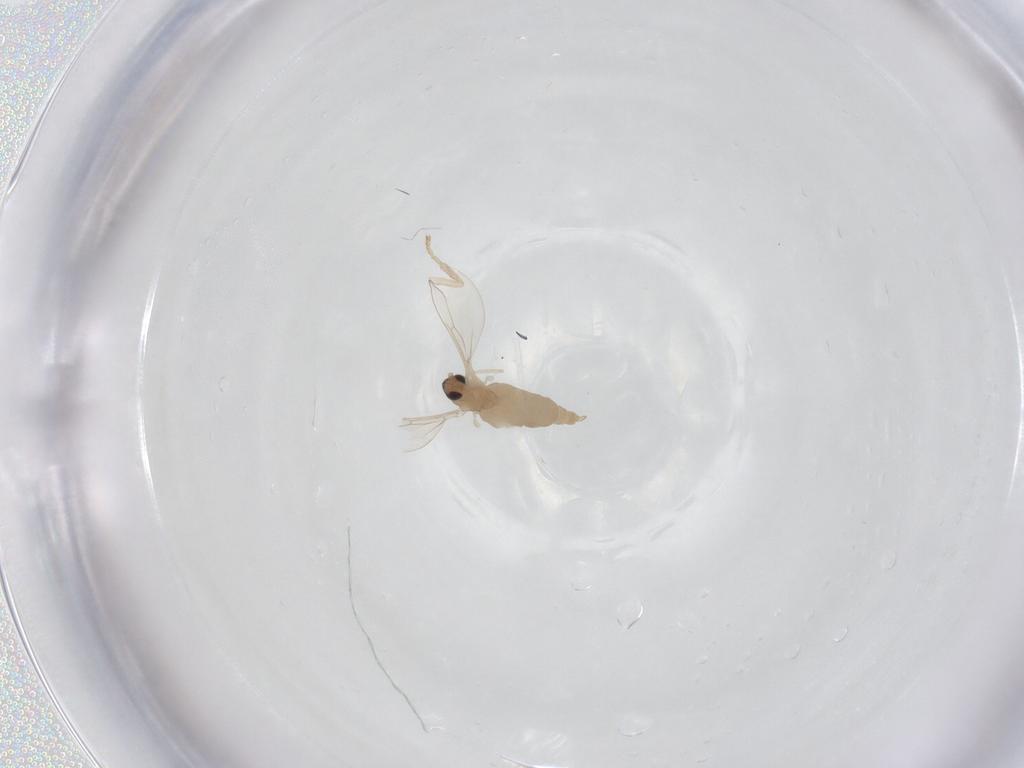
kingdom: Animalia
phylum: Arthropoda
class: Insecta
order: Diptera
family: Cecidomyiidae
